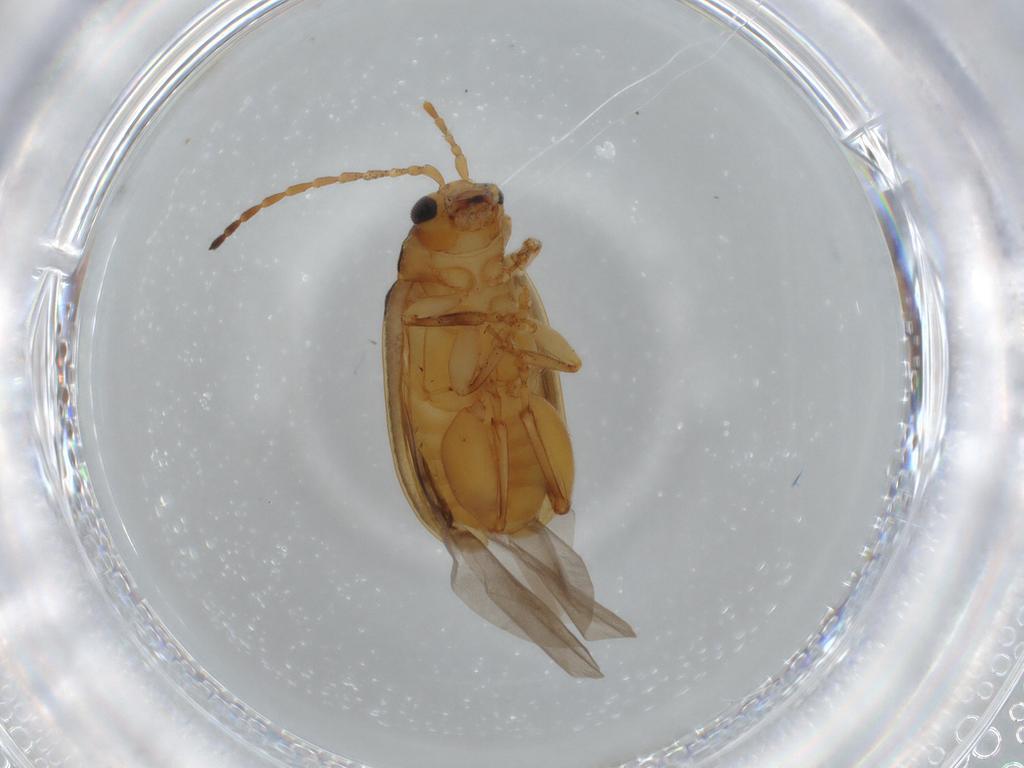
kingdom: Animalia
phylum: Arthropoda
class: Insecta
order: Coleoptera
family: Chrysomelidae
